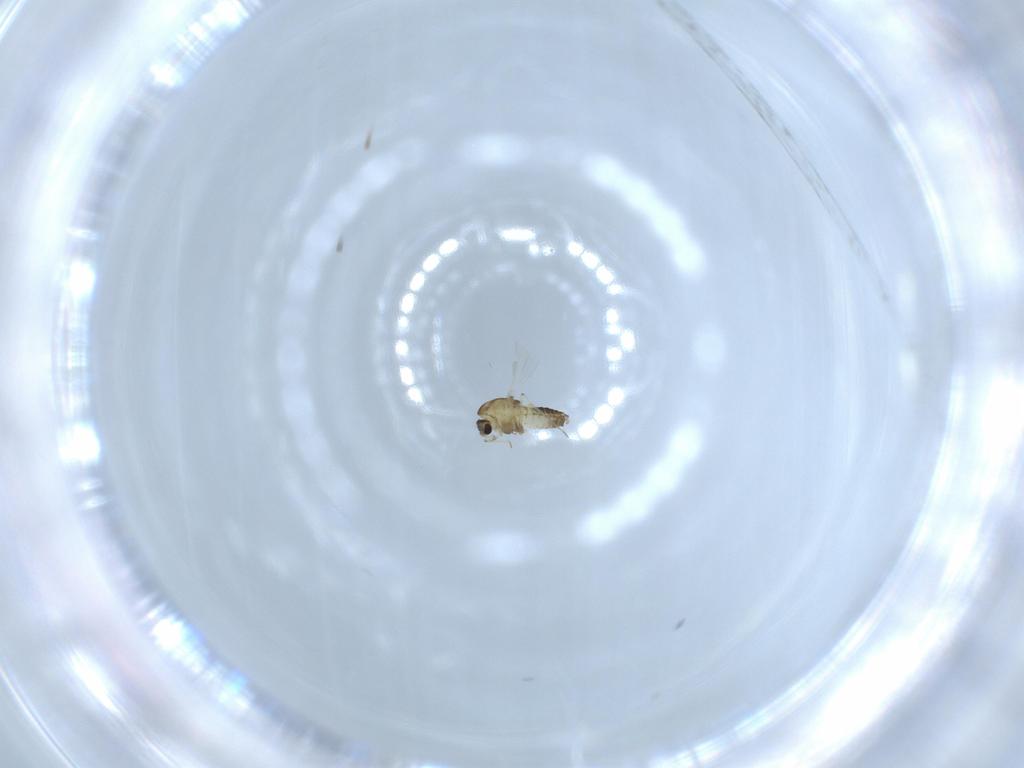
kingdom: Animalia
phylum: Arthropoda
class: Insecta
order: Diptera
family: Chironomidae
